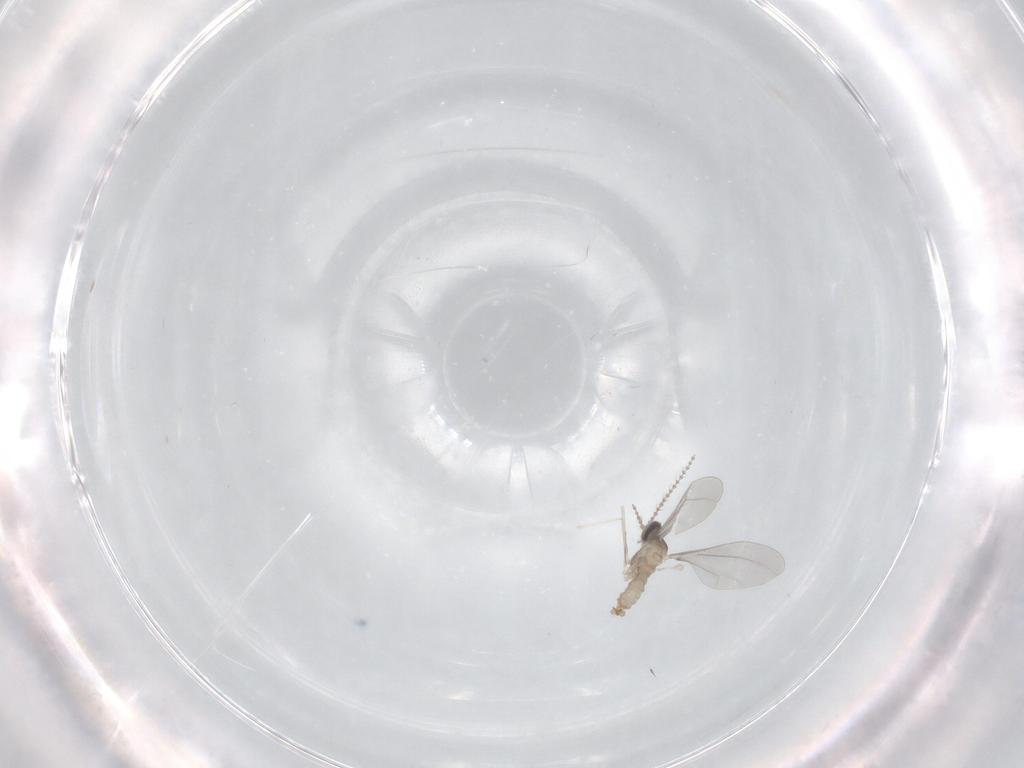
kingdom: Animalia
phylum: Arthropoda
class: Insecta
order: Diptera
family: Cecidomyiidae
